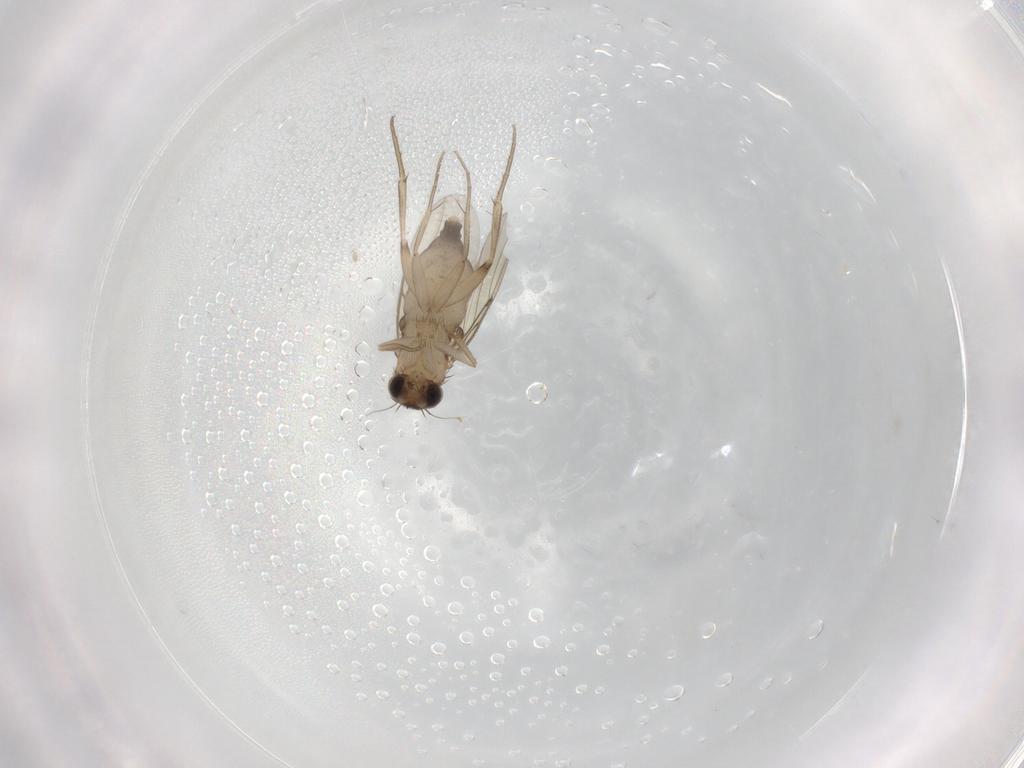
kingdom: Animalia
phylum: Arthropoda
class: Insecta
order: Diptera
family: Phoridae
